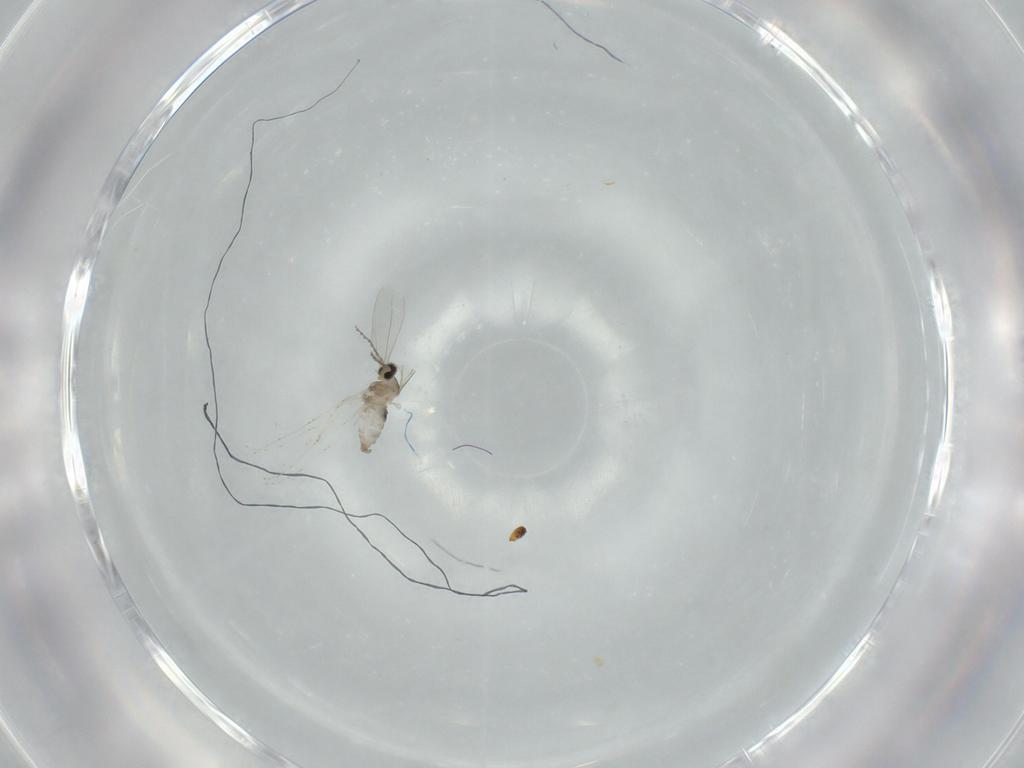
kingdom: Animalia
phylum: Arthropoda
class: Insecta
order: Diptera
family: Cecidomyiidae
